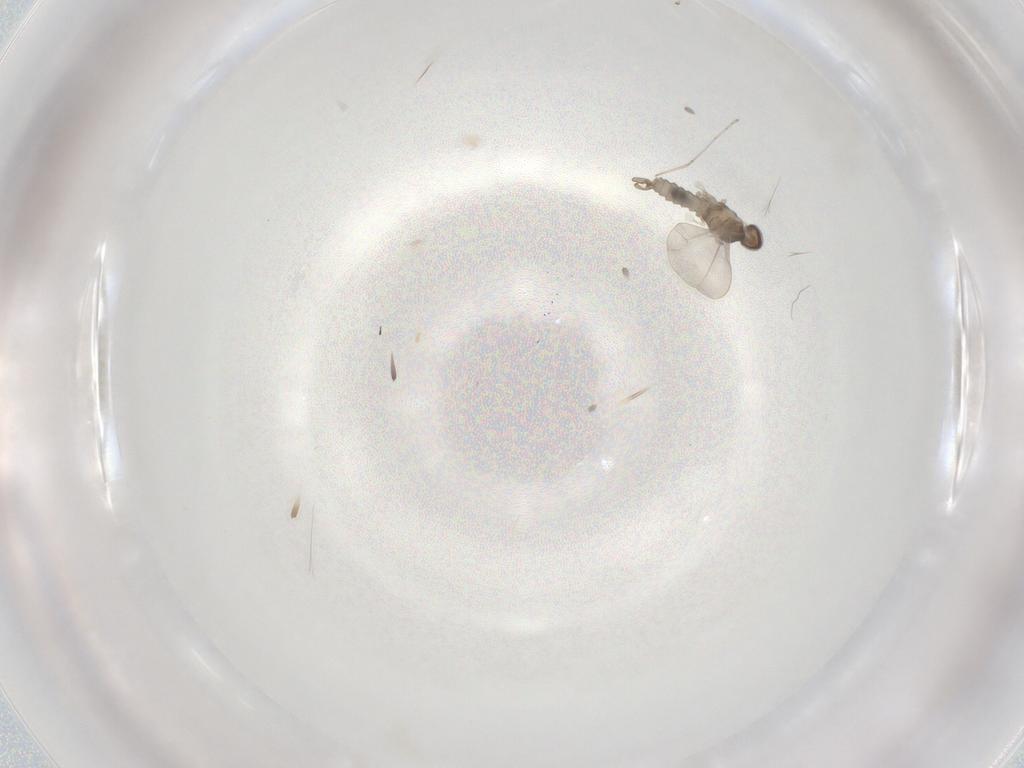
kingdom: Animalia
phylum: Arthropoda
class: Insecta
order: Diptera
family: Cecidomyiidae
